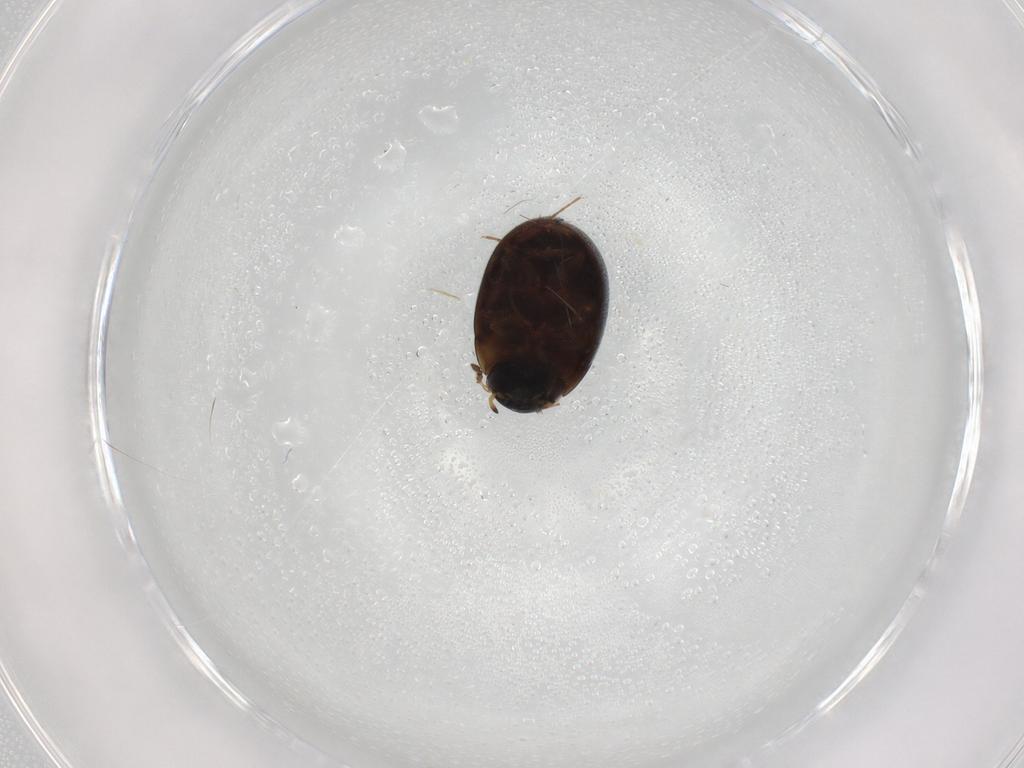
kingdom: Animalia
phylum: Arthropoda
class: Insecta
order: Coleoptera
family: Hydrophilidae
